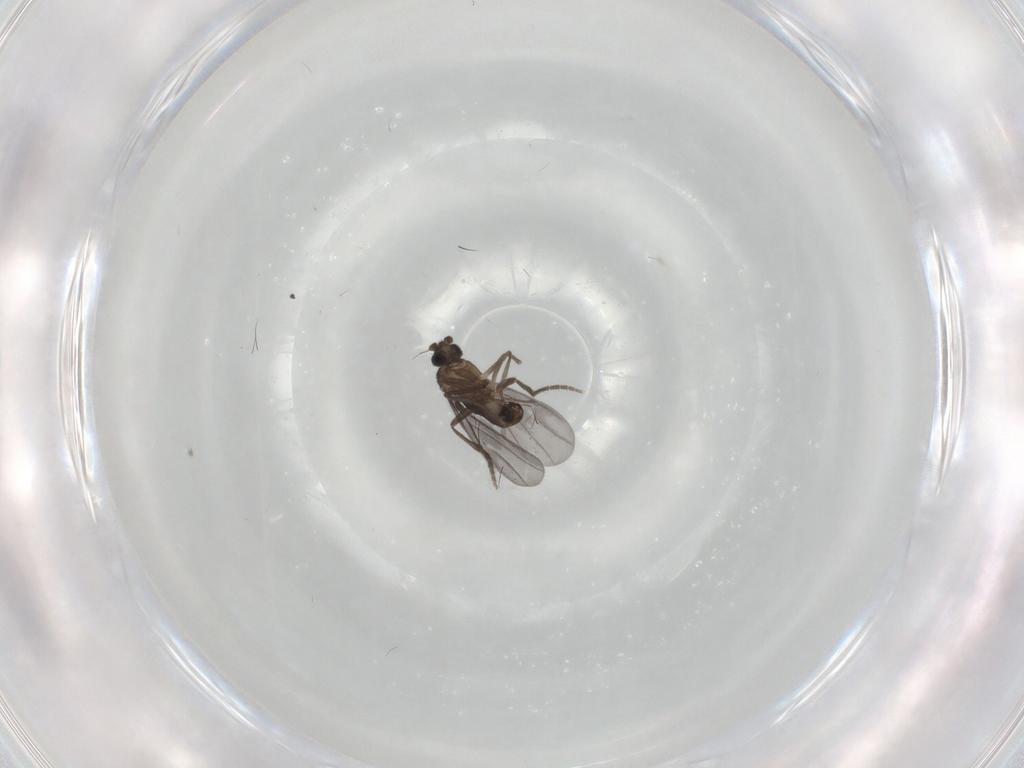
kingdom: Animalia
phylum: Arthropoda
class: Insecta
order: Diptera
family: Phoridae
